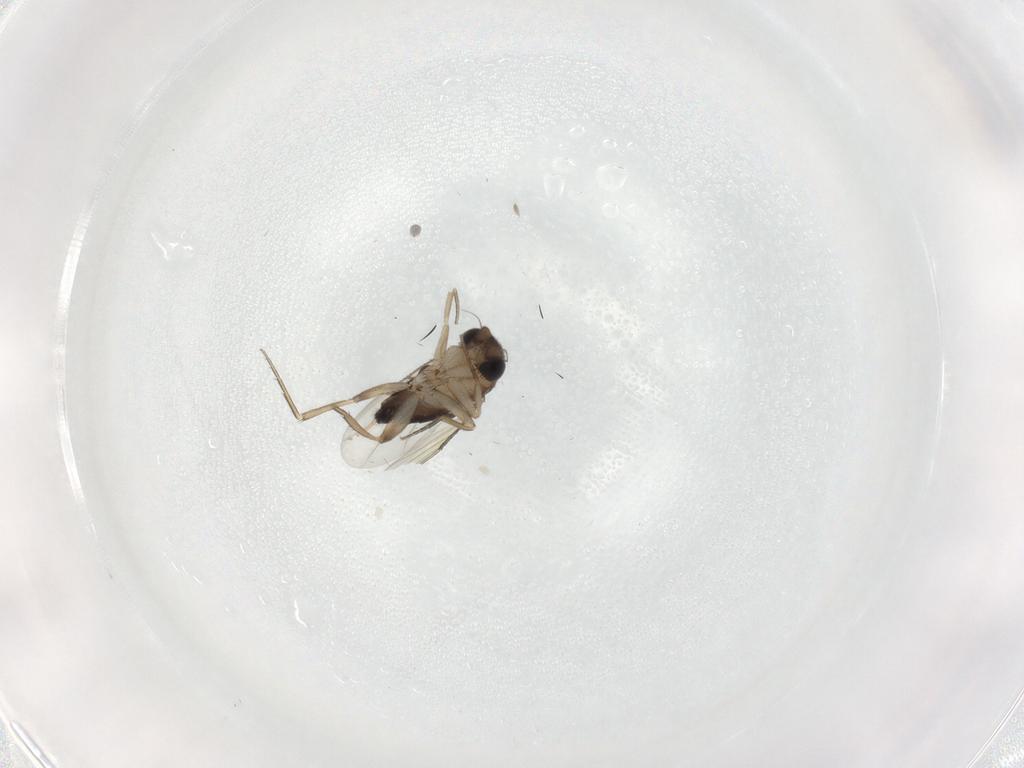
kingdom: Animalia
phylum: Arthropoda
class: Insecta
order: Diptera
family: Phoridae
